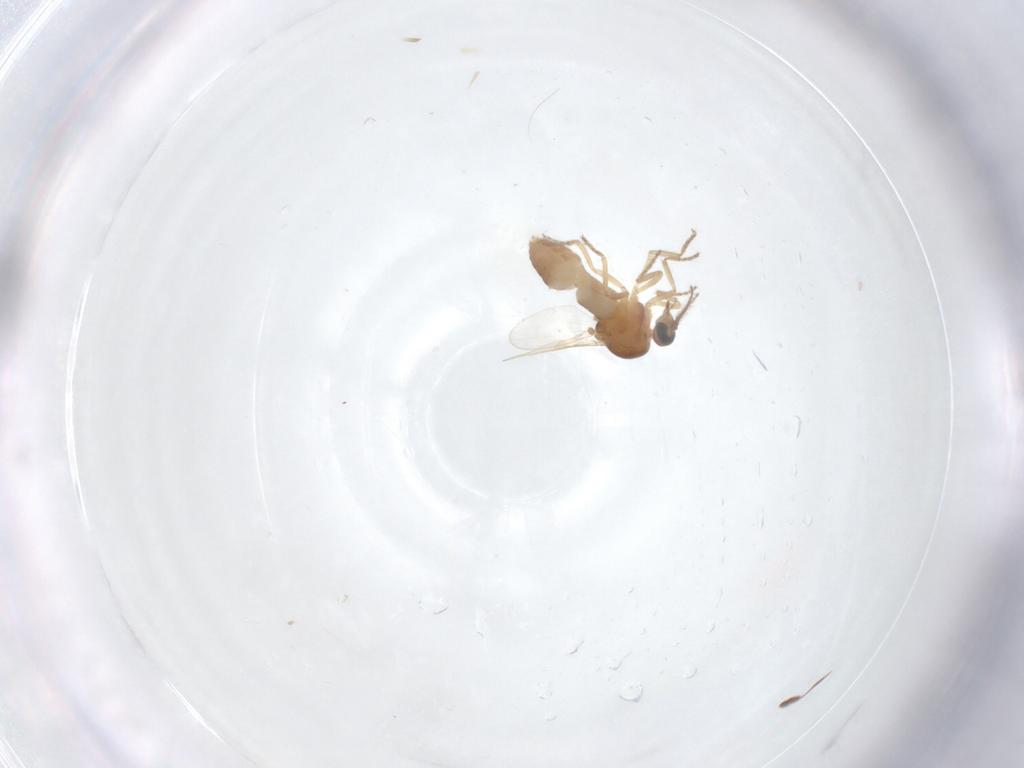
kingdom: Animalia
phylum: Arthropoda
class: Insecta
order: Diptera
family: Ceratopogonidae
